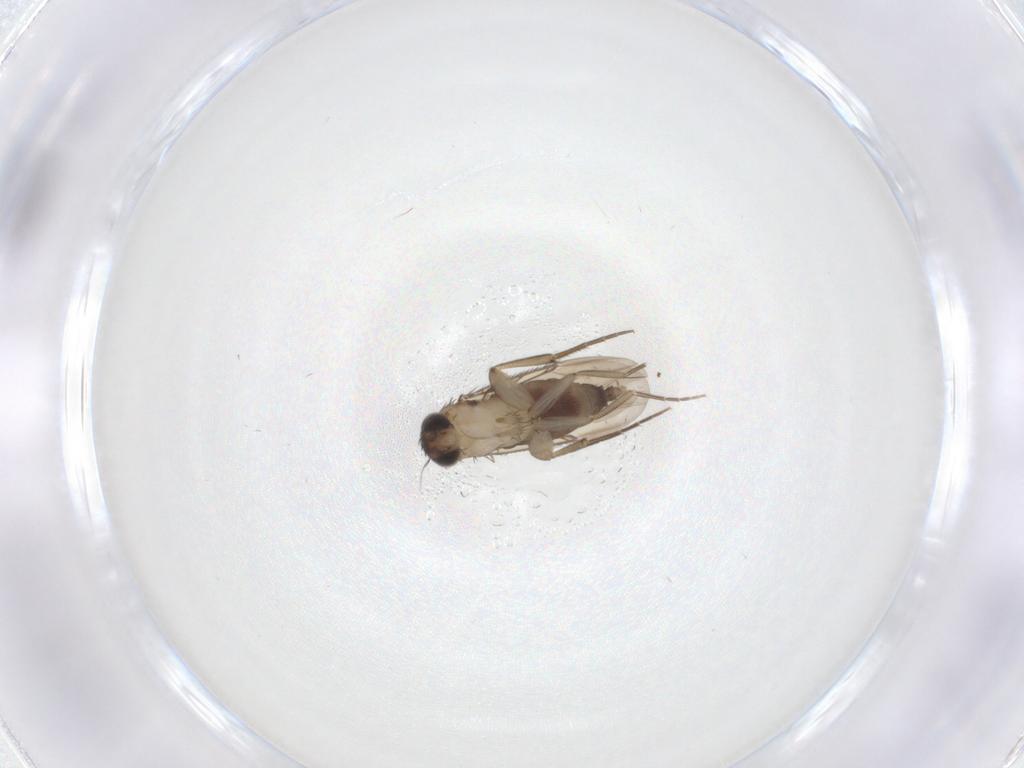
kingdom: Animalia
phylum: Arthropoda
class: Insecta
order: Diptera
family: Phoridae
